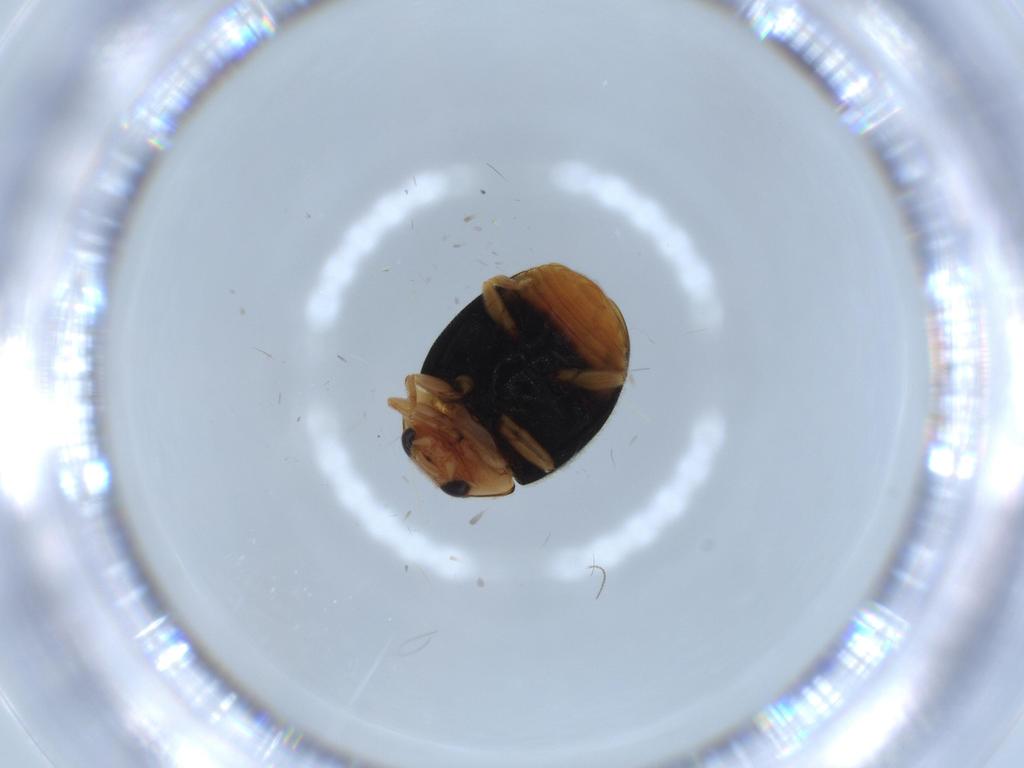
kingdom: Animalia
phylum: Arthropoda
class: Insecta
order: Coleoptera
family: Coccinellidae
